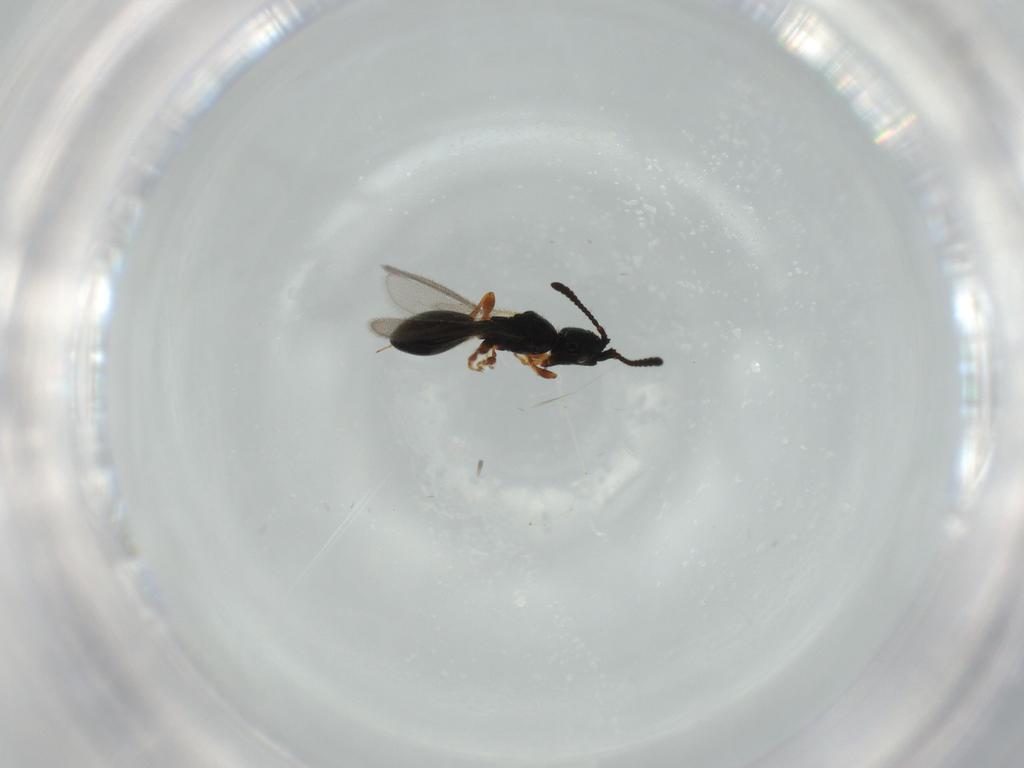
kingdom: Animalia
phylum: Arthropoda
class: Insecta
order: Hymenoptera
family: Diapriidae
